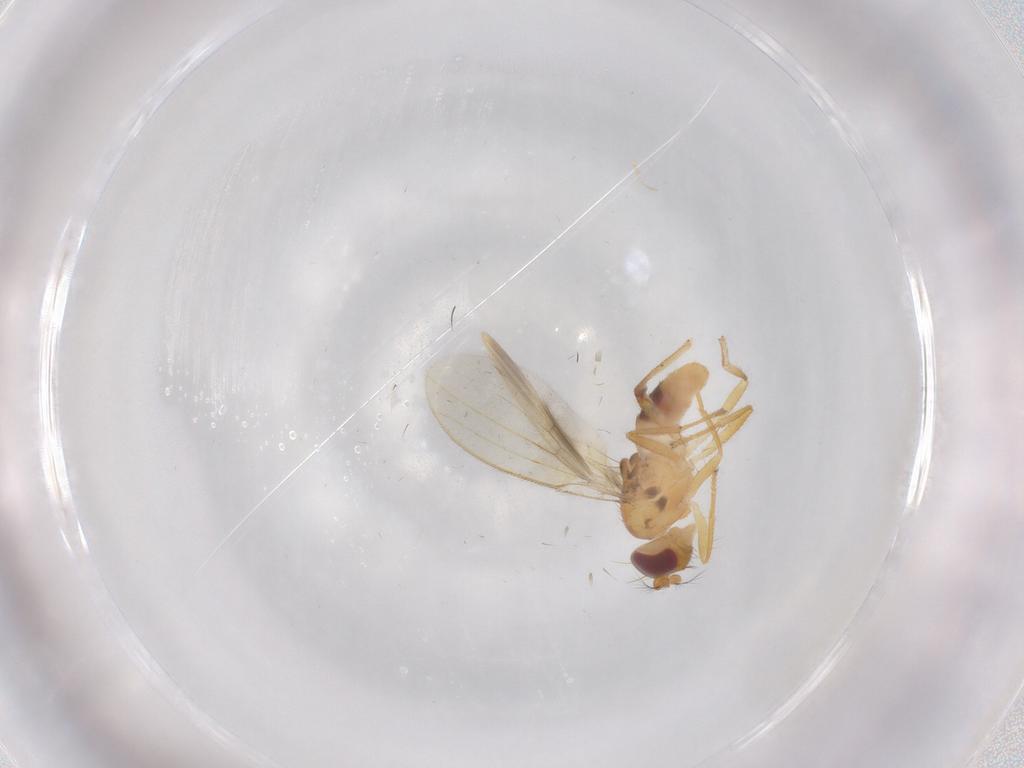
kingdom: Animalia
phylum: Arthropoda
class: Insecta
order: Diptera
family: Periscelididae
